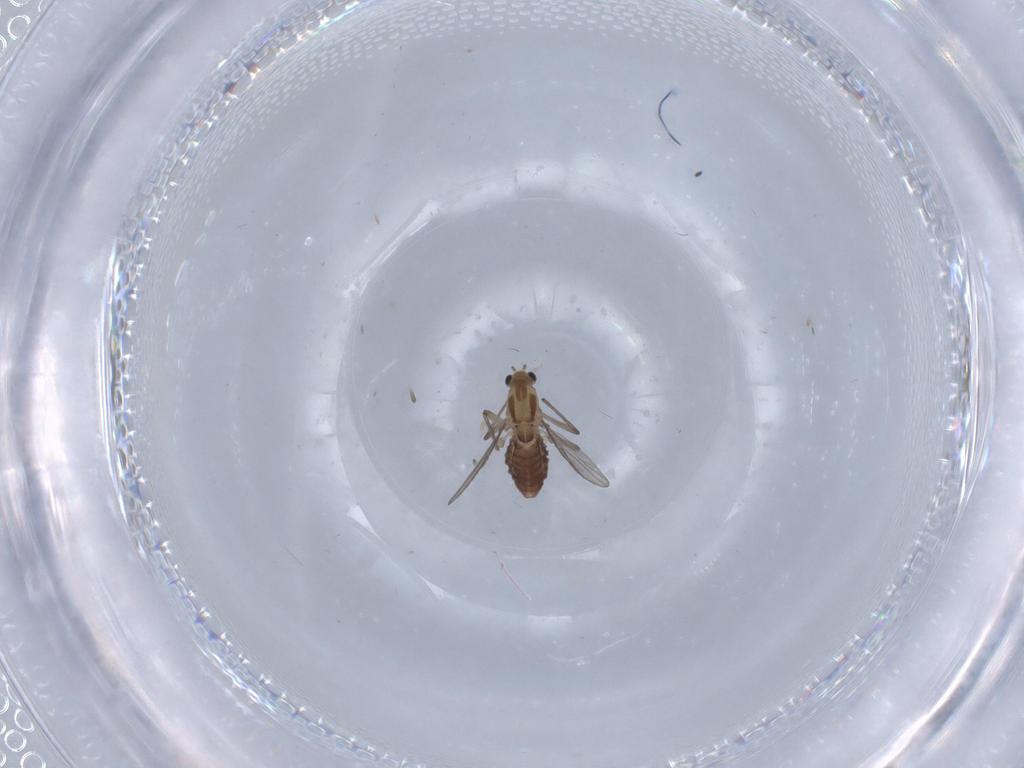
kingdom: Animalia
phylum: Arthropoda
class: Insecta
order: Diptera
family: Chironomidae
